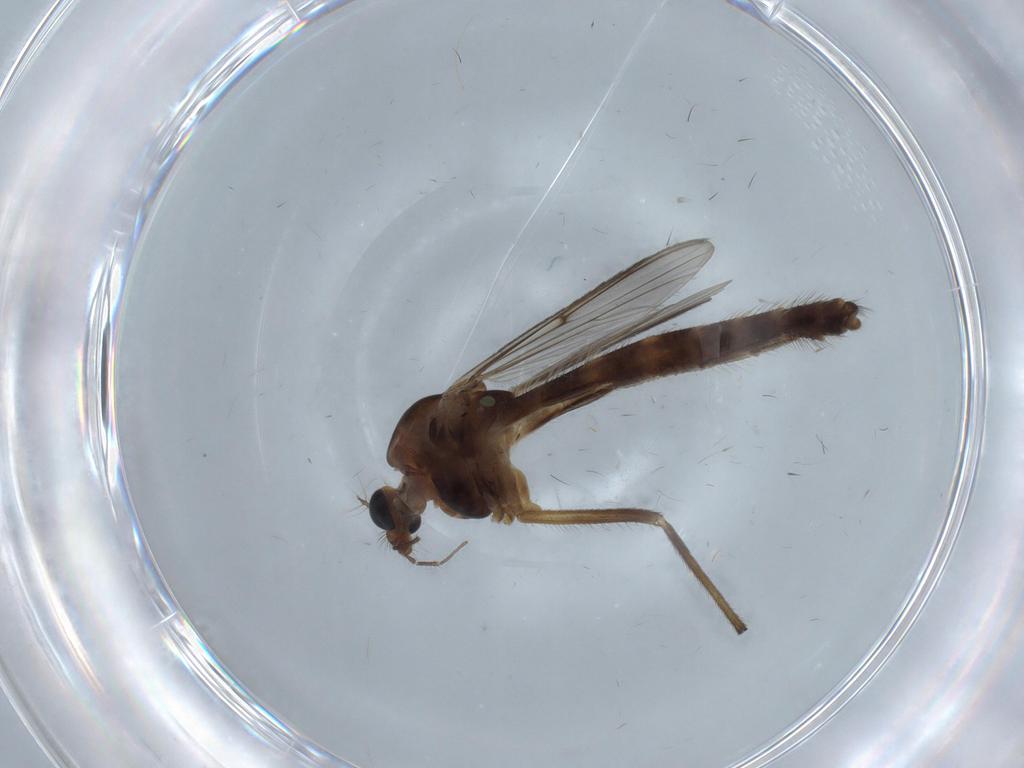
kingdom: Animalia
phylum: Arthropoda
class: Insecta
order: Diptera
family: Chironomidae
